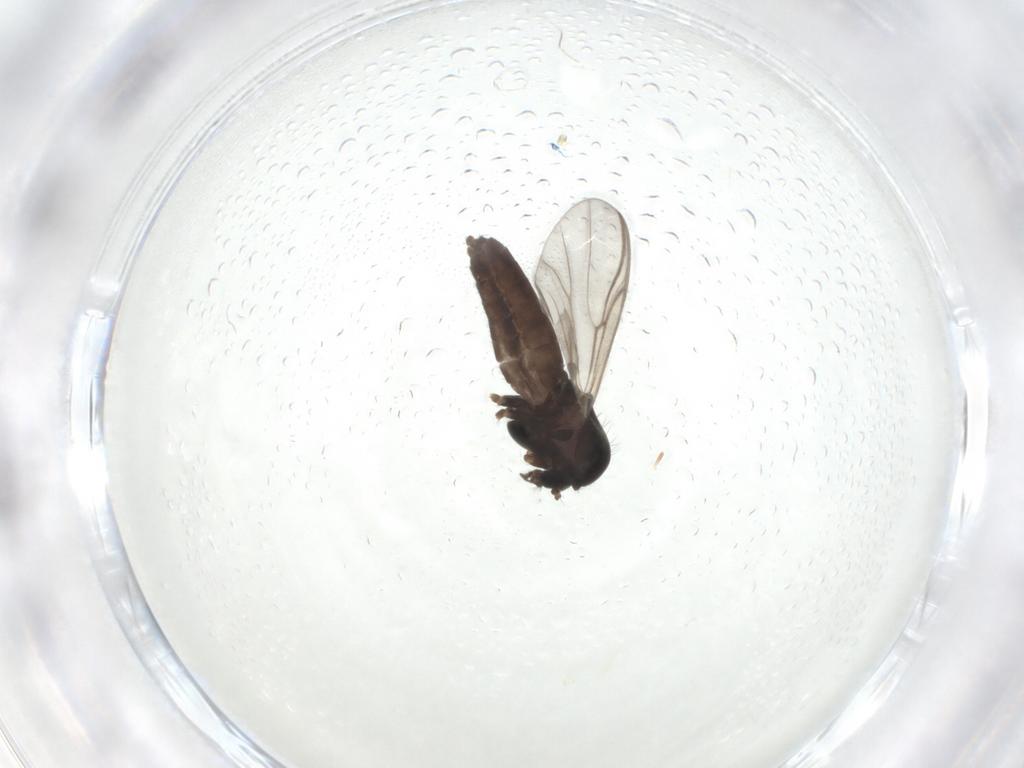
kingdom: Animalia
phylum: Arthropoda
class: Insecta
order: Diptera
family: Chironomidae
